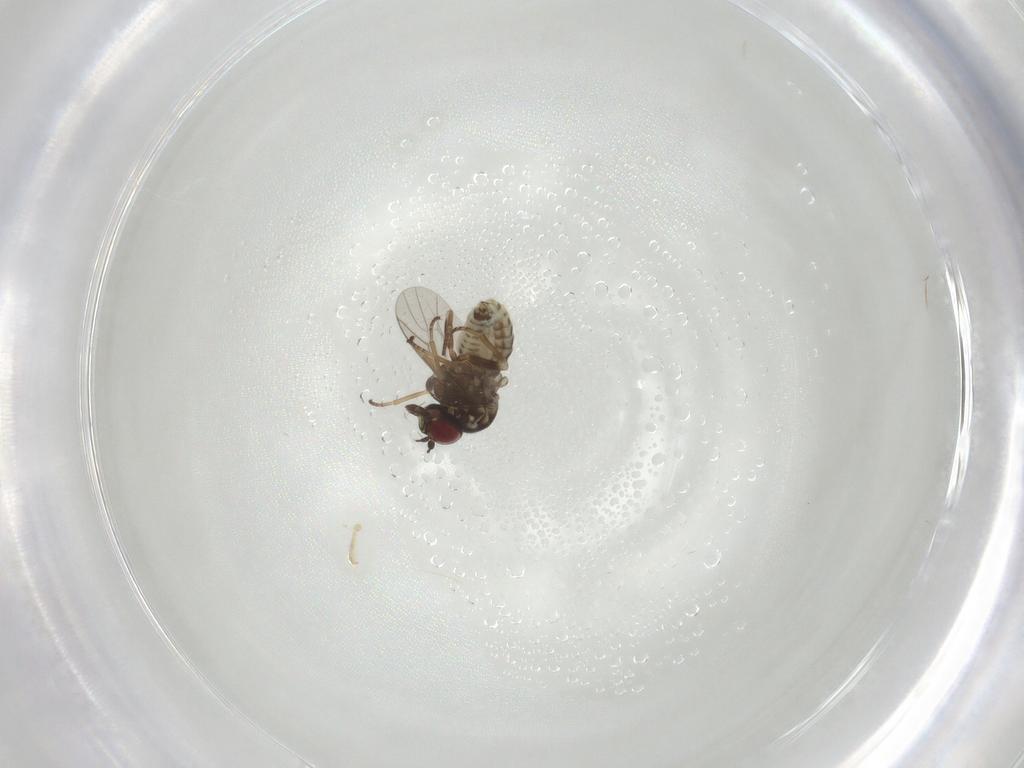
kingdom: Animalia
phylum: Arthropoda
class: Insecta
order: Diptera
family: Bombyliidae
